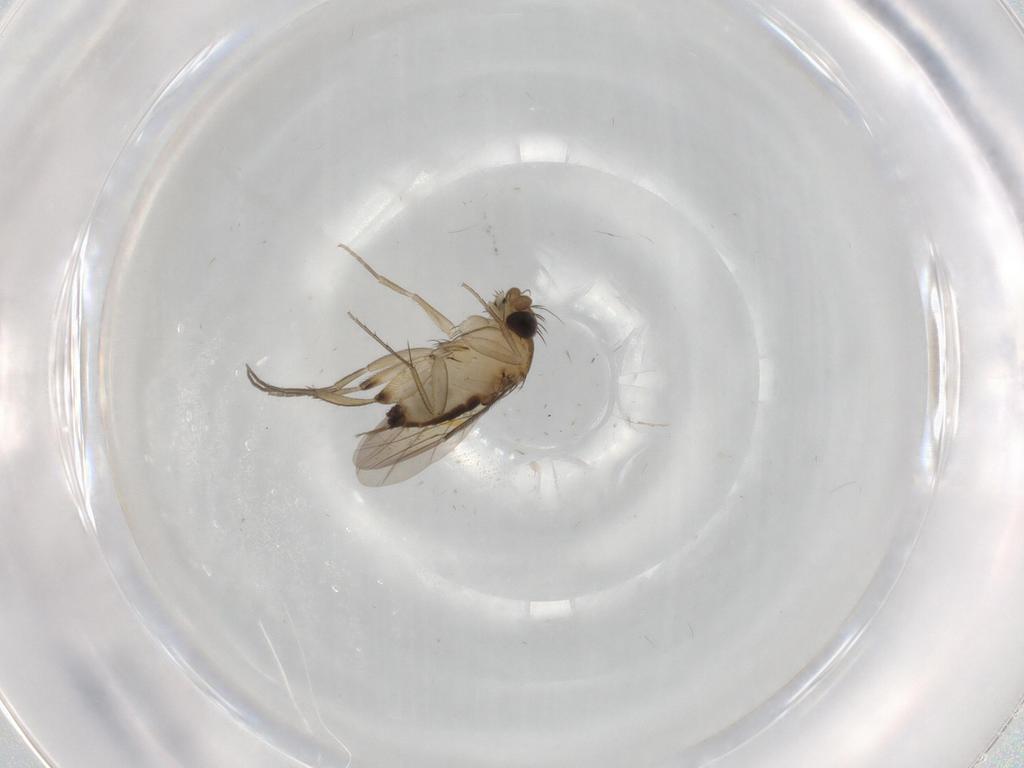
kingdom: Animalia
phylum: Arthropoda
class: Insecta
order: Diptera
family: Phoridae
